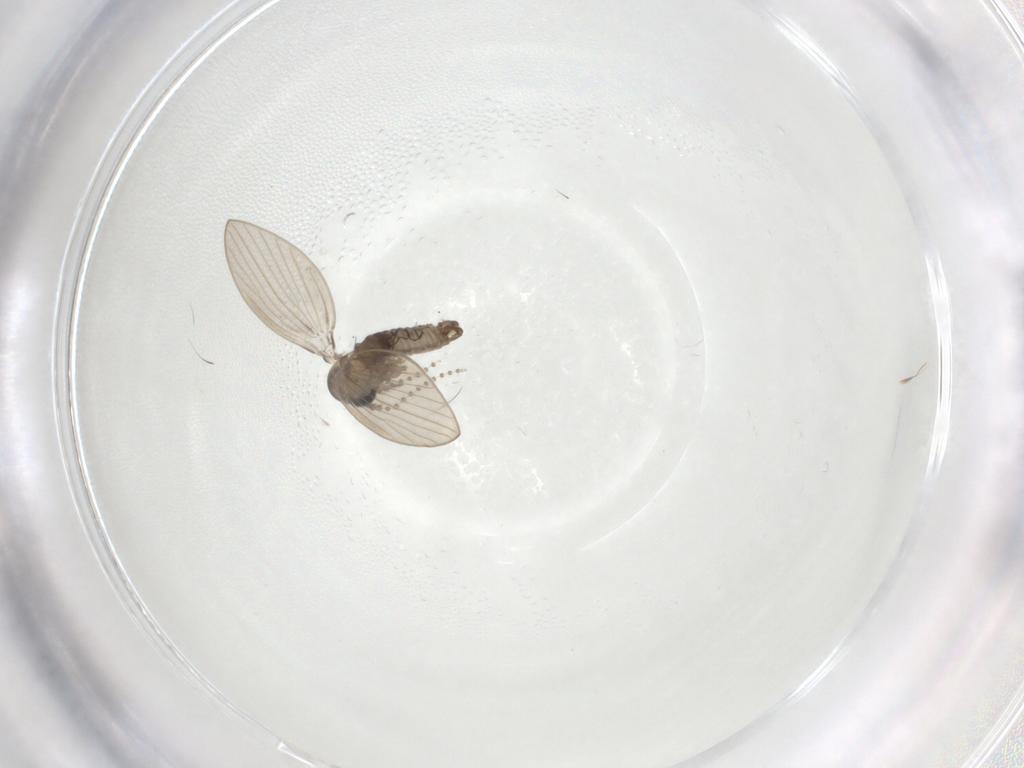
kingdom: Animalia
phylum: Arthropoda
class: Insecta
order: Diptera
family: Psychodidae
